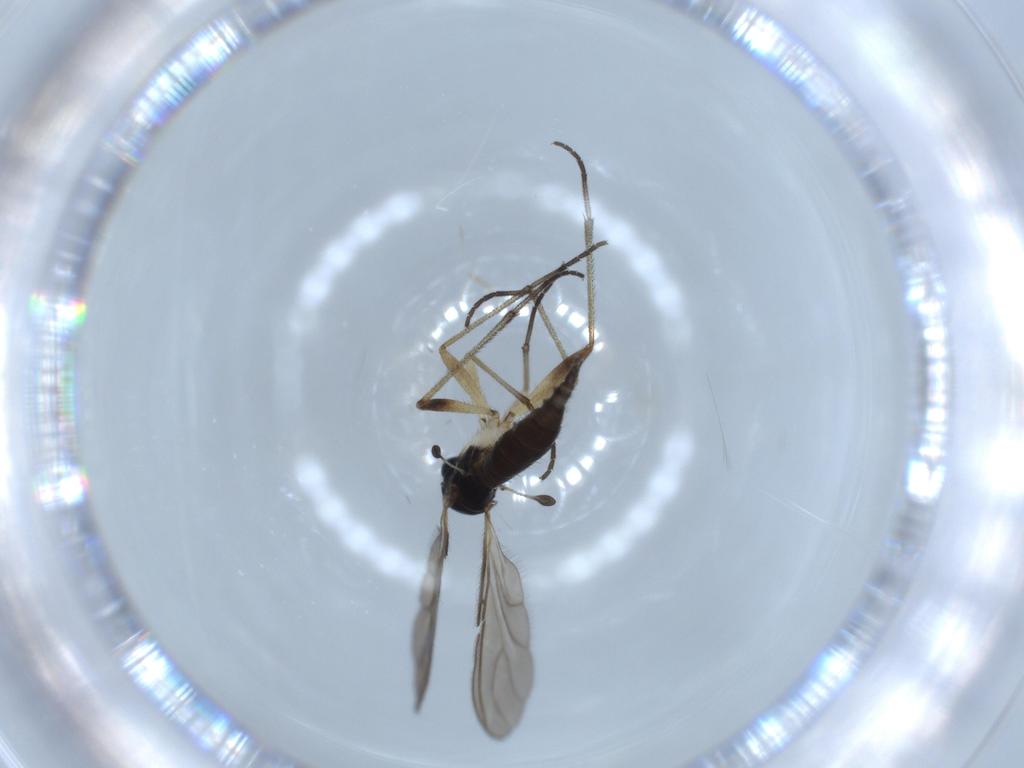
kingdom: Animalia
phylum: Arthropoda
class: Insecta
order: Diptera
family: Sciaridae
